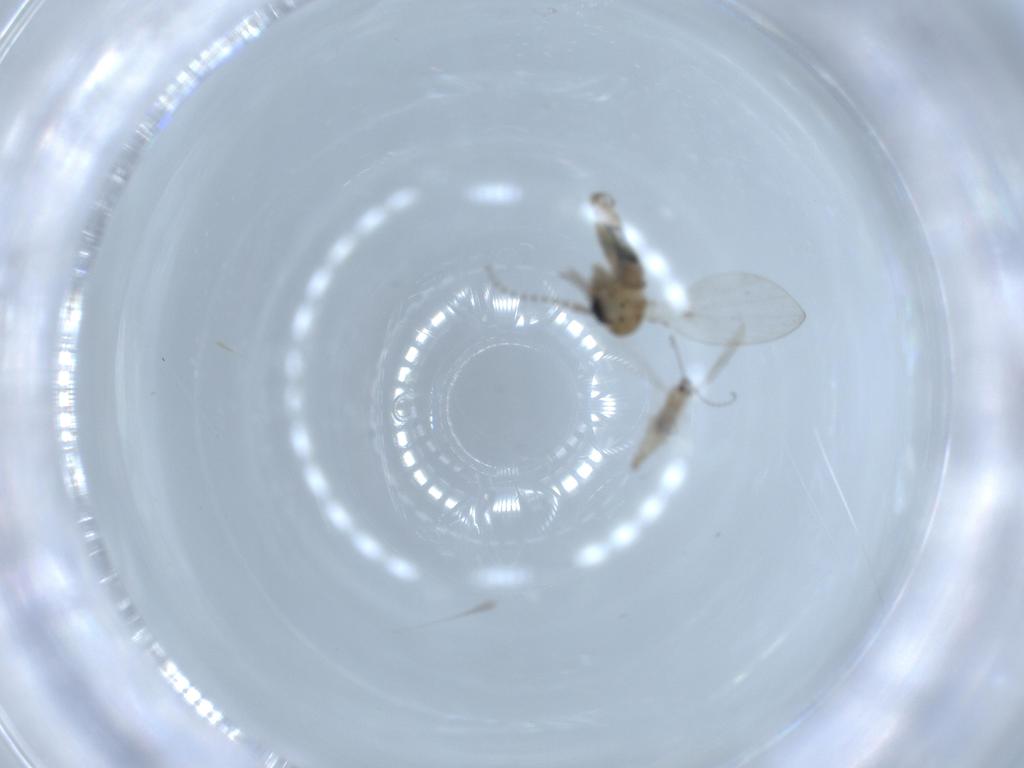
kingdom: Animalia
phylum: Arthropoda
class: Insecta
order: Diptera
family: Psychodidae
